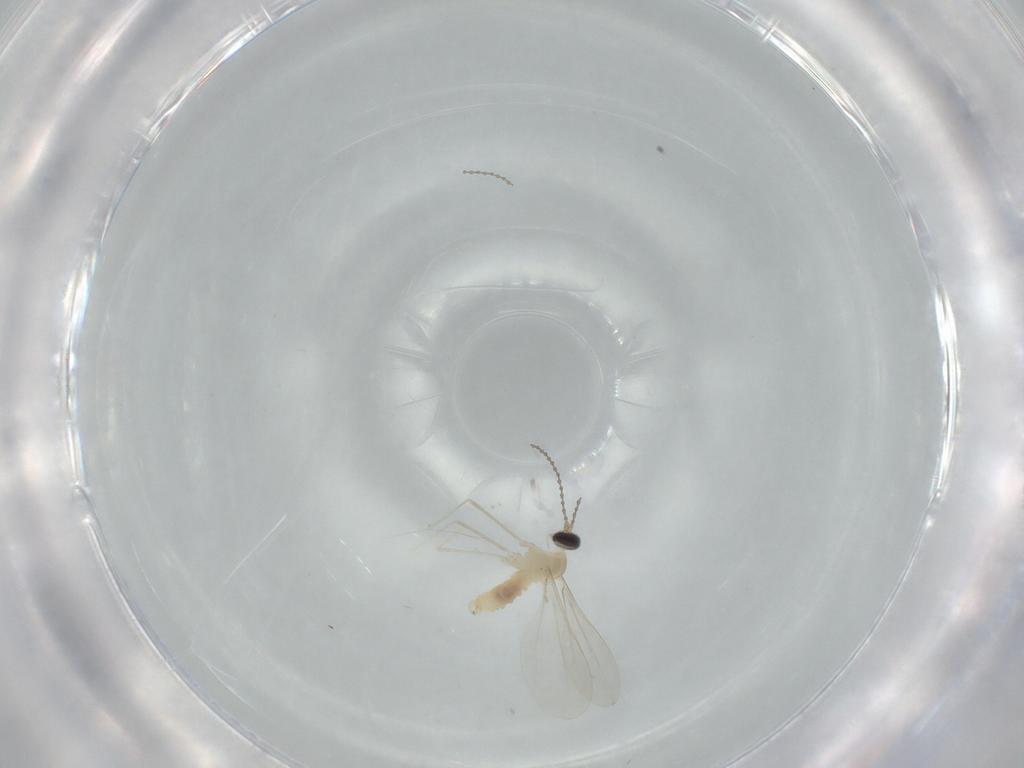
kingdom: Animalia
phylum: Arthropoda
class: Insecta
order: Diptera
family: Cecidomyiidae
